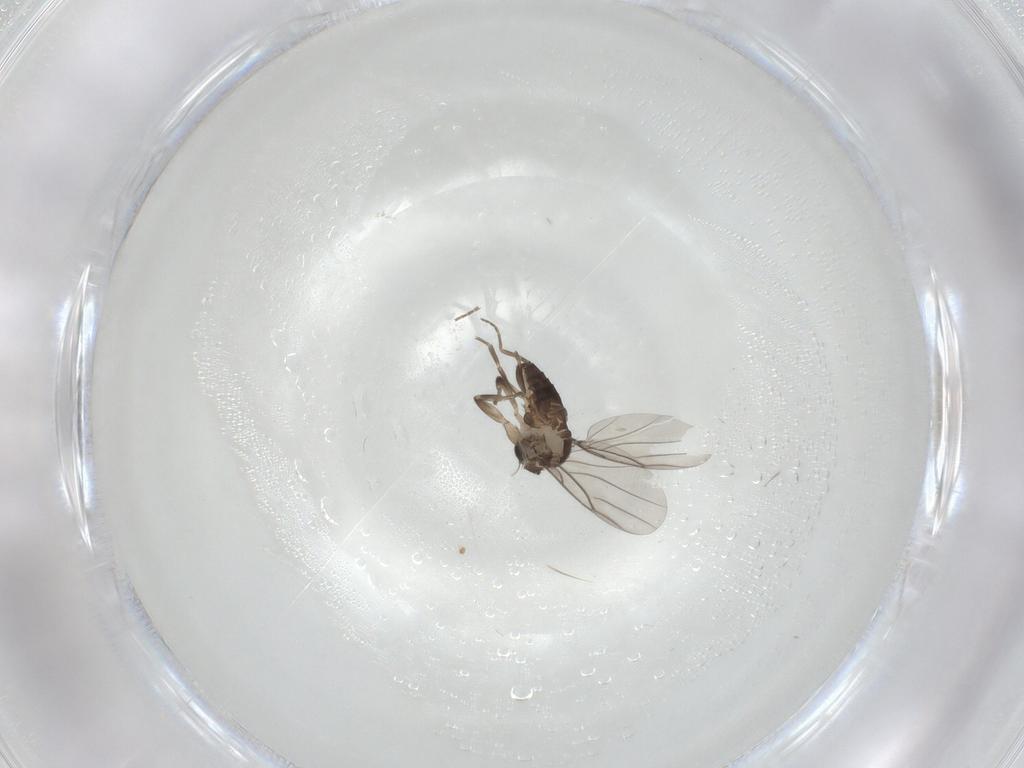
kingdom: Animalia
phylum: Arthropoda
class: Insecta
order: Diptera
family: Phoridae
